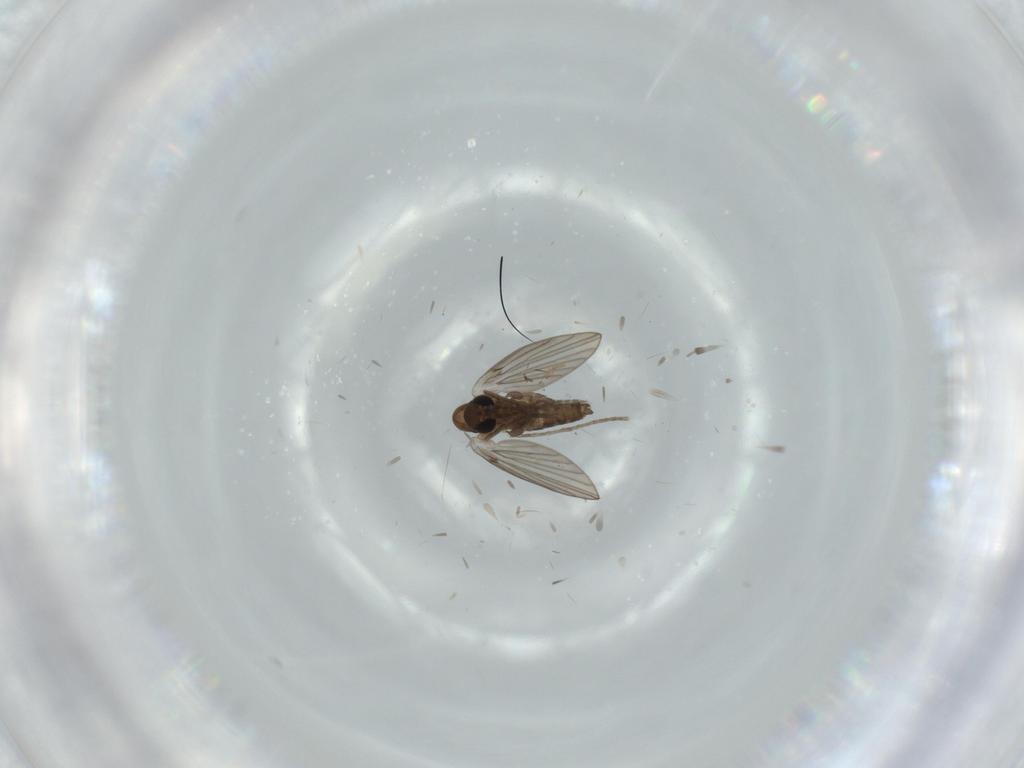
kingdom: Animalia
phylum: Arthropoda
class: Insecta
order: Diptera
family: Psychodidae
